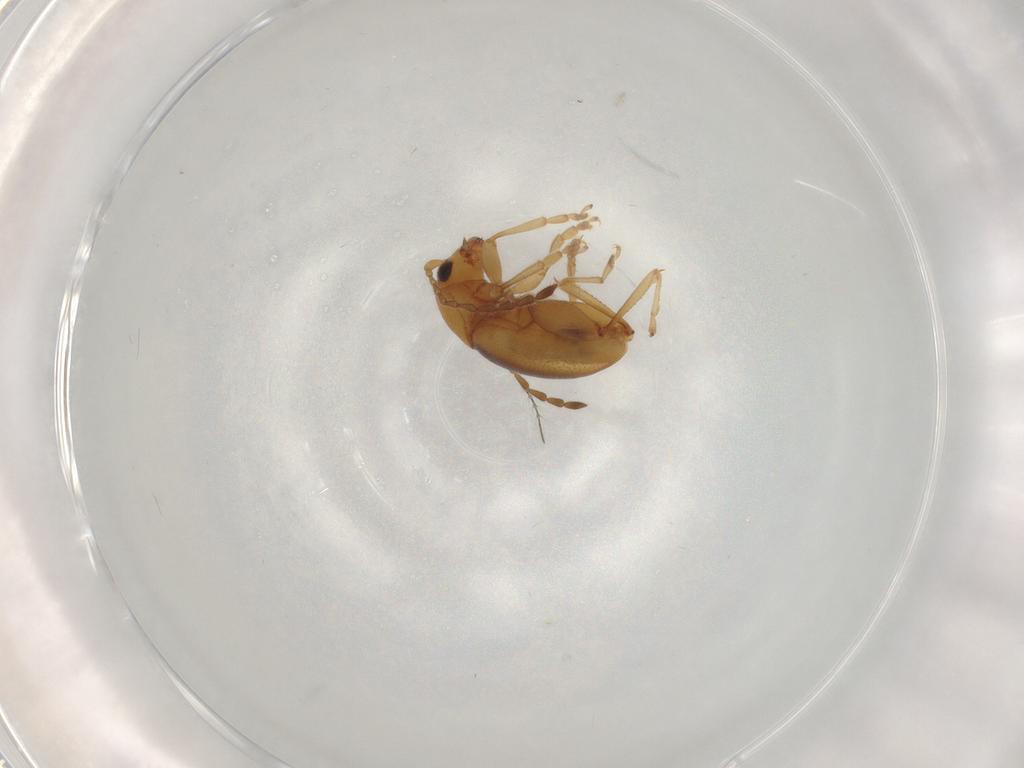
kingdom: Animalia
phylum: Arthropoda
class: Insecta
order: Coleoptera
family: Chrysomelidae
